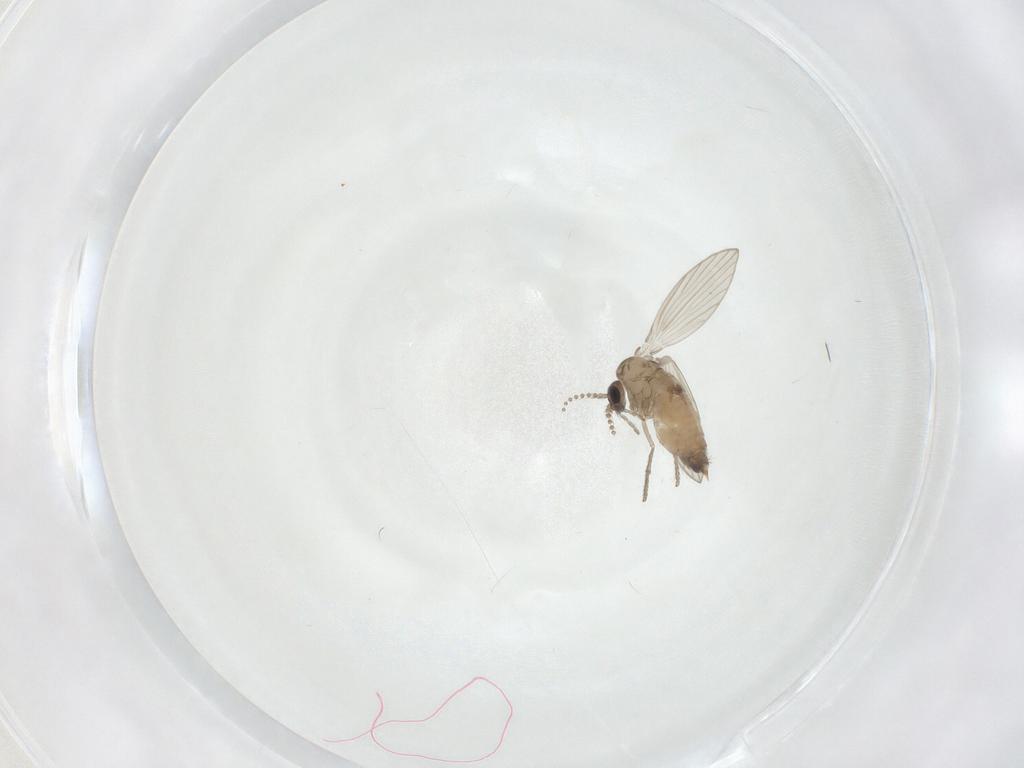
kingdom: Animalia
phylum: Arthropoda
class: Insecta
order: Diptera
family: Psychodidae
